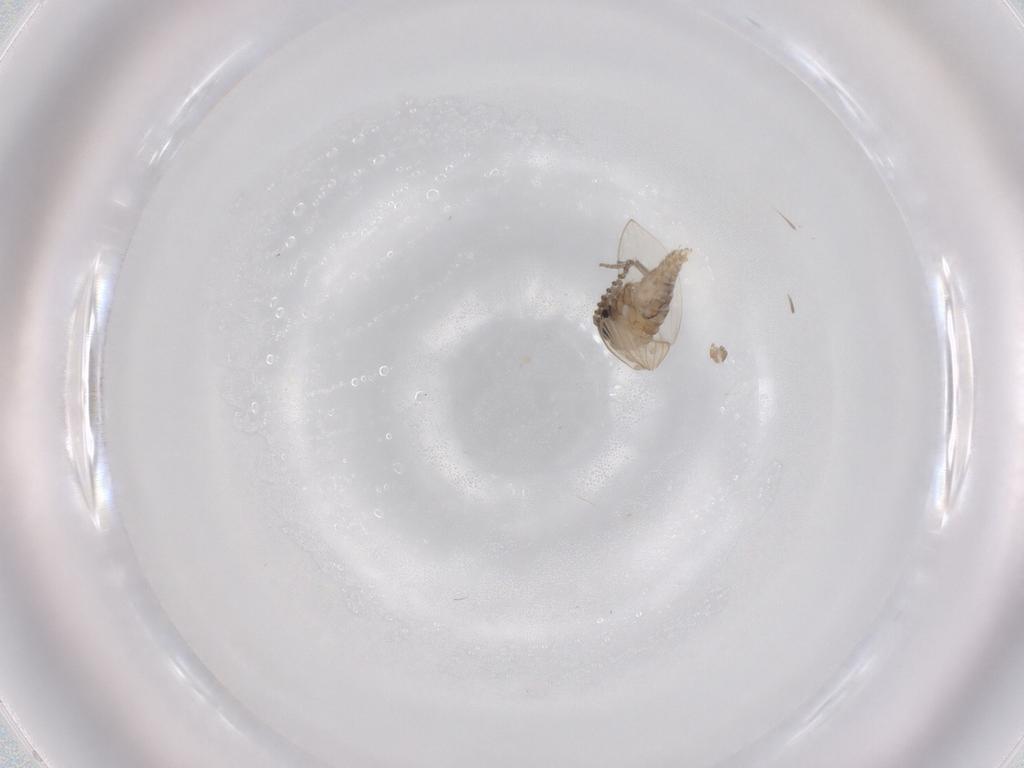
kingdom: Animalia
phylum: Arthropoda
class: Insecta
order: Diptera
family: Psychodidae
